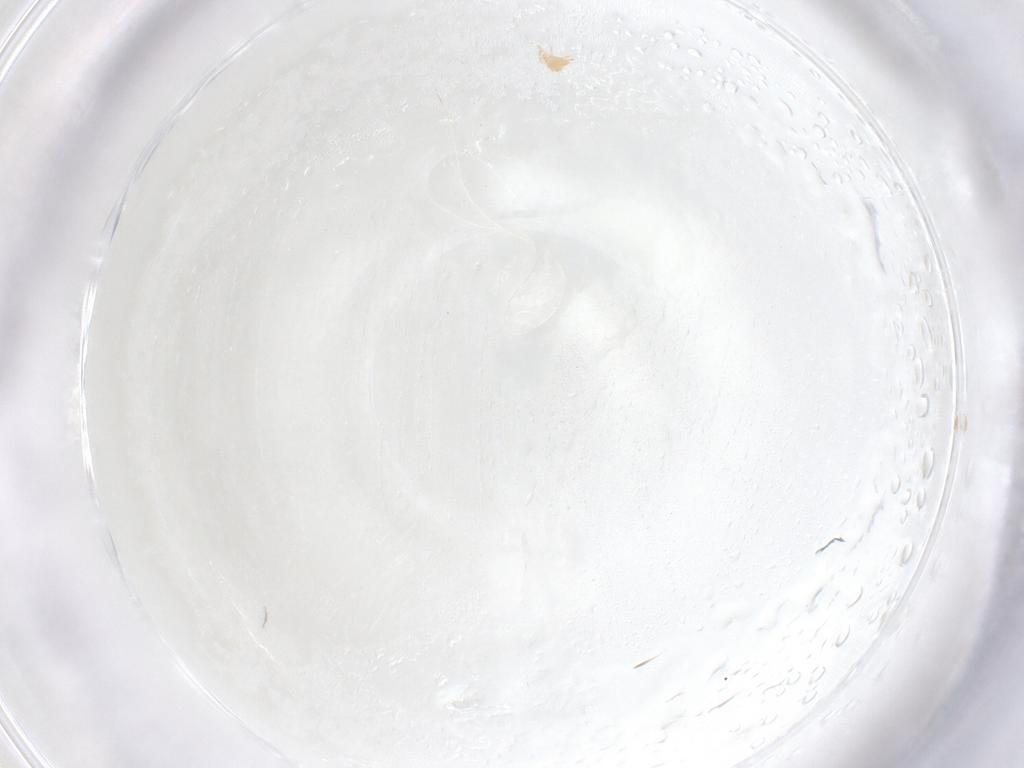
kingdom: Animalia
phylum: Arthropoda
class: Arachnida
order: Trombidiformes
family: Pygmephoridae
